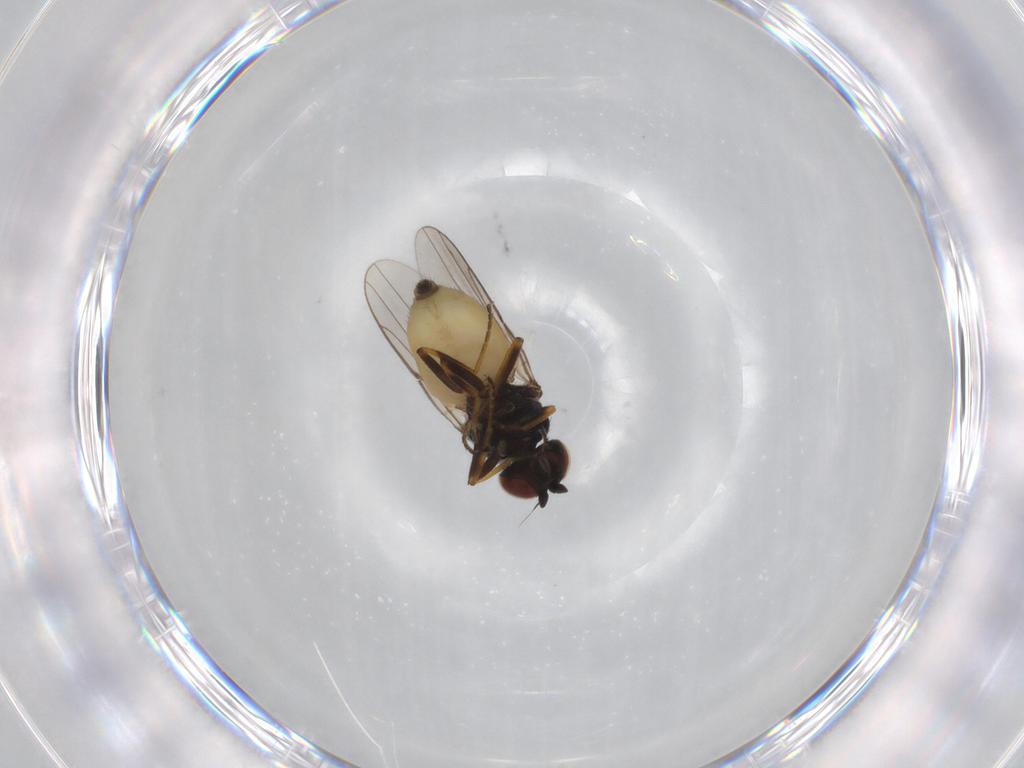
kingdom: Animalia
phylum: Arthropoda
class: Insecta
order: Diptera
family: Chloropidae
